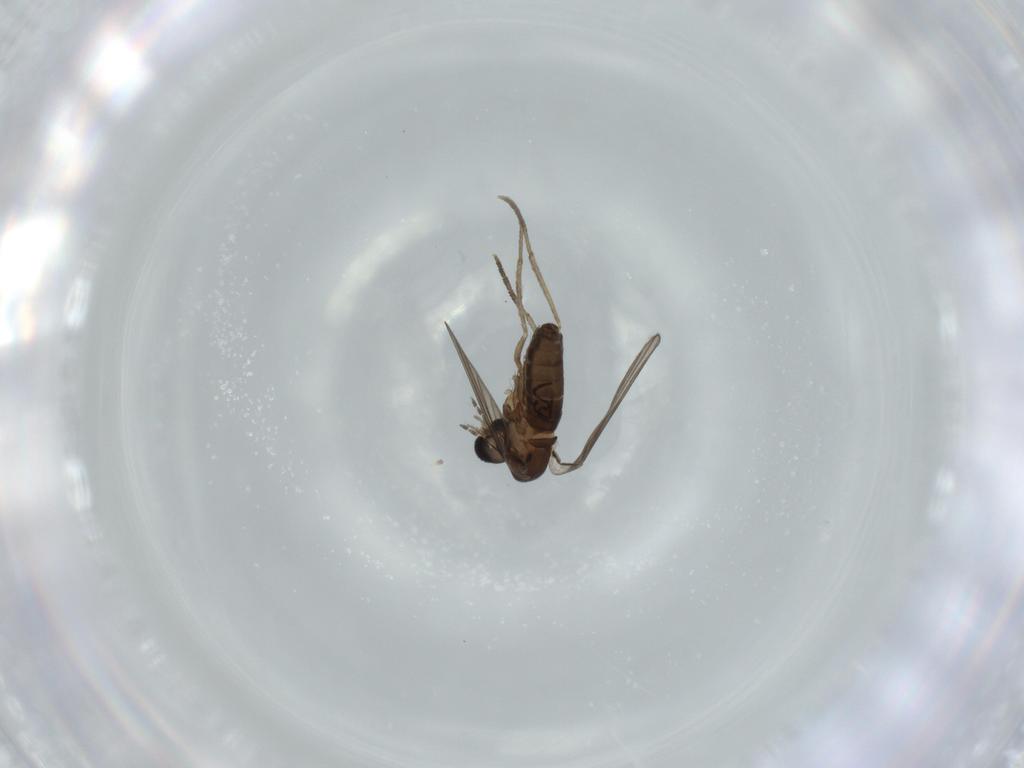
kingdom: Animalia
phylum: Arthropoda
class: Insecta
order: Diptera
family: Psychodidae
